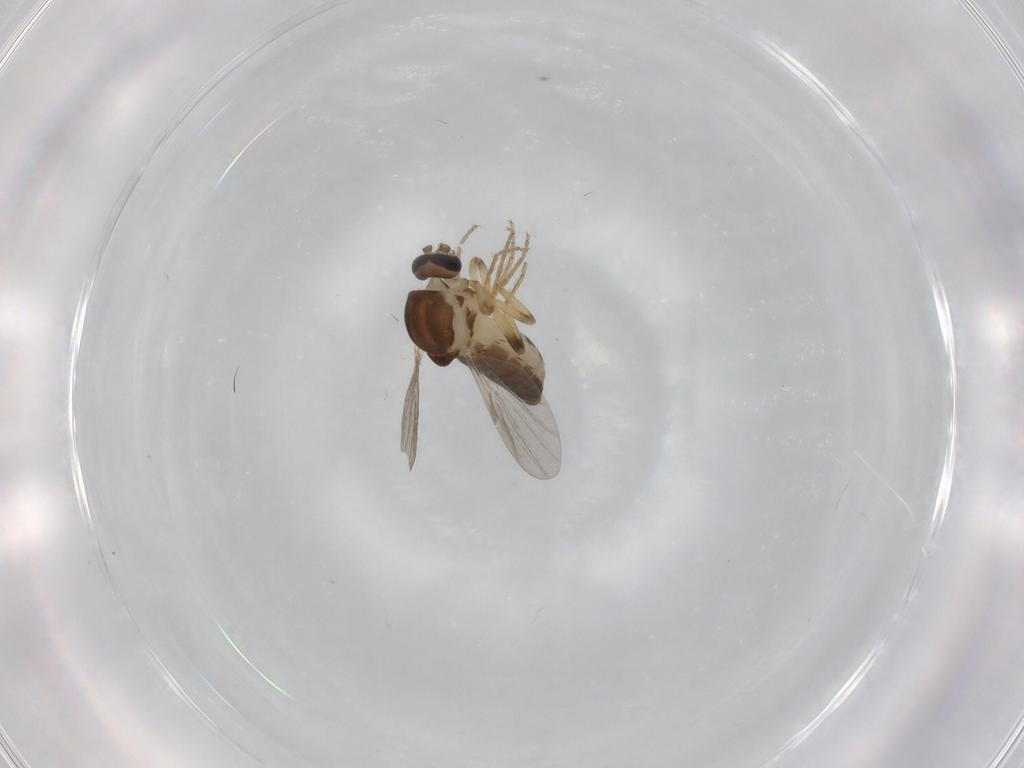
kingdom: Animalia
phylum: Arthropoda
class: Insecta
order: Diptera
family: Ceratopogonidae
